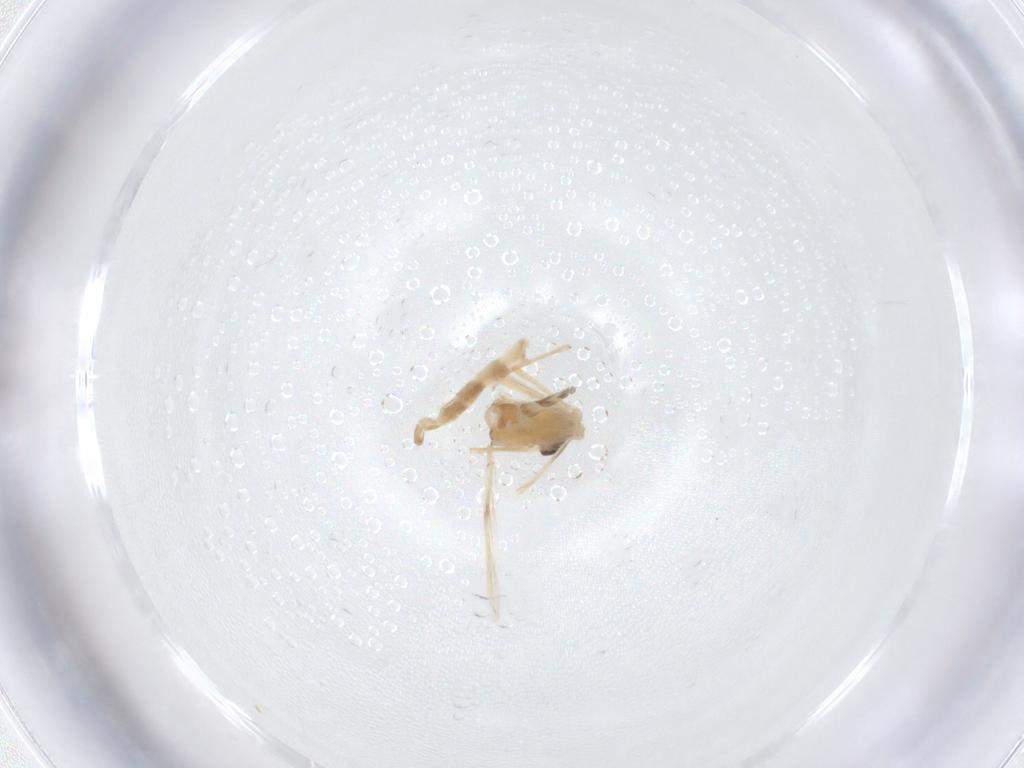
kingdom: Animalia
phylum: Arthropoda
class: Insecta
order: Diptera
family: Chironomidae
